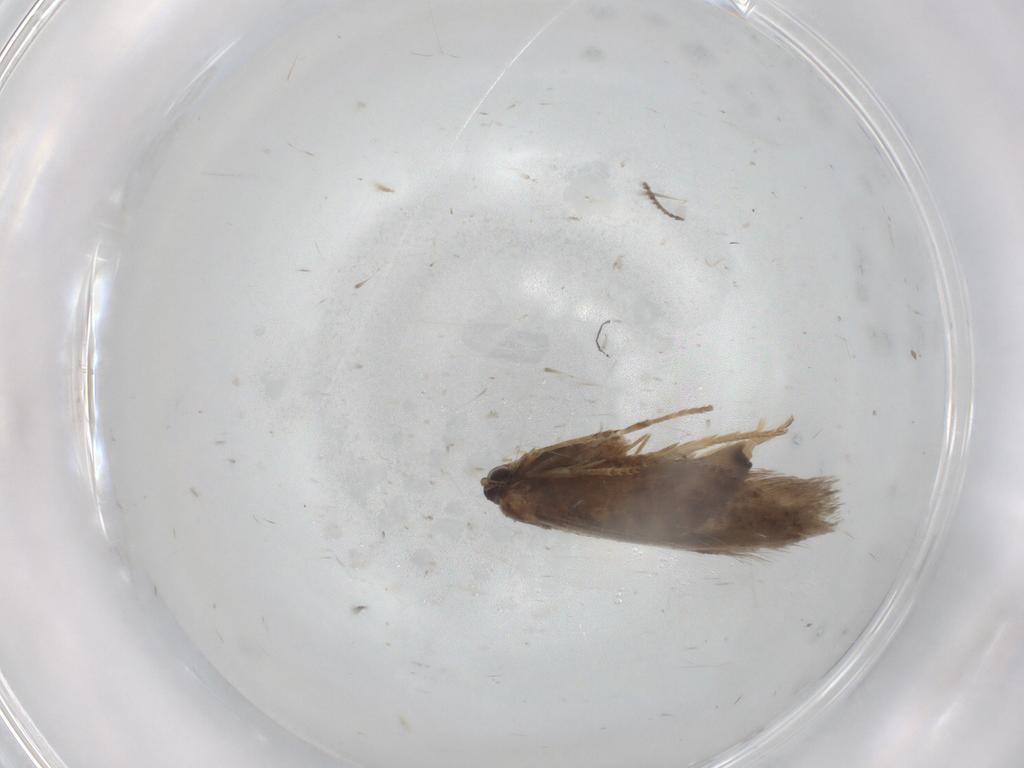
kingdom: Animalia
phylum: Arthropoda
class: Insecta
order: Lepidoptera
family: Nepticulidae
